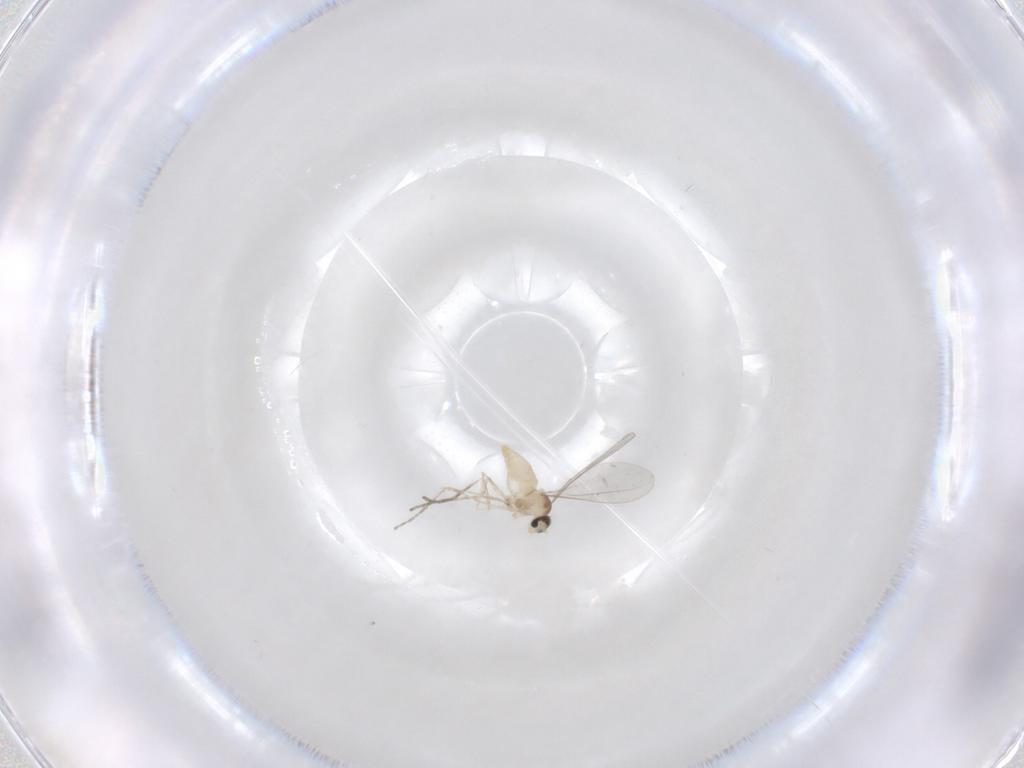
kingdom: Animalia
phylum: Arthropoda
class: Insecta
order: Diptera
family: Cecidomyiidae
